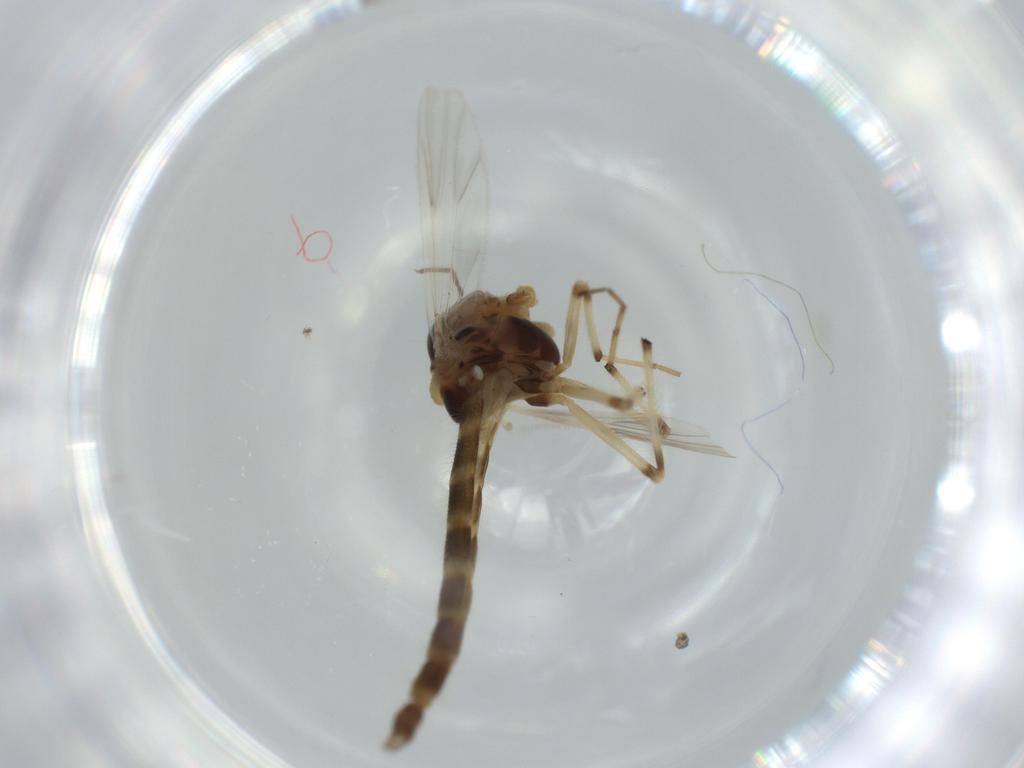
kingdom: Animalia
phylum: Arthropoda
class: Insecta
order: Diptera
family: Chironomidae
